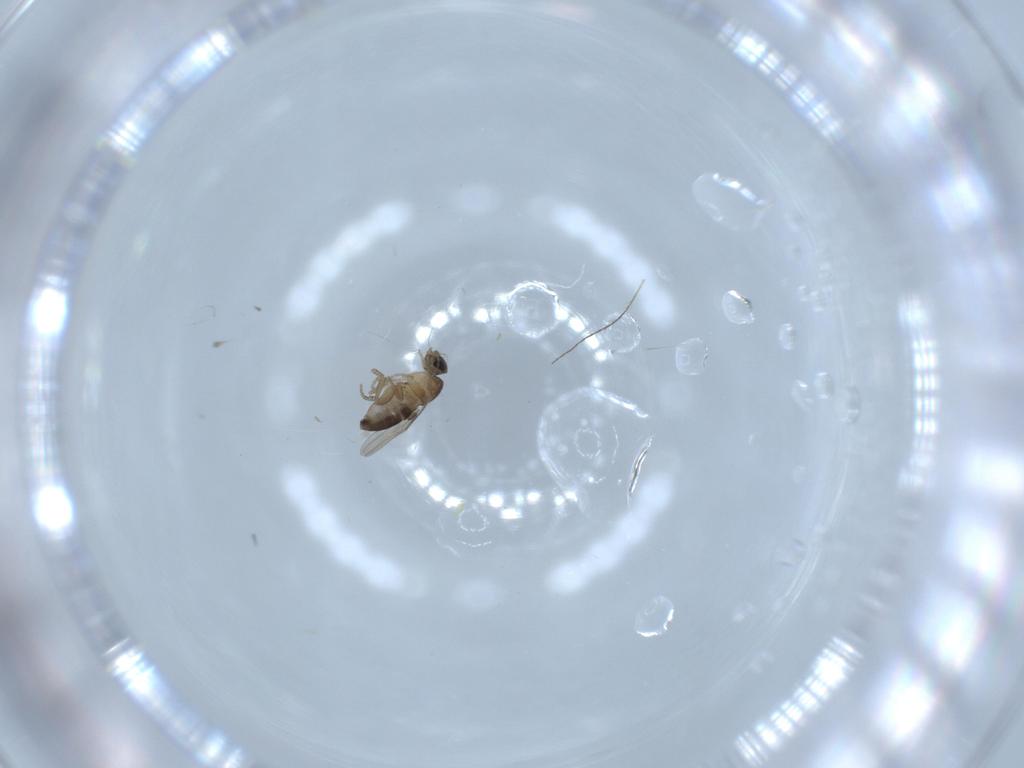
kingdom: Animalia
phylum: Arthropoda
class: Insecta
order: Diptera
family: Phoridae
